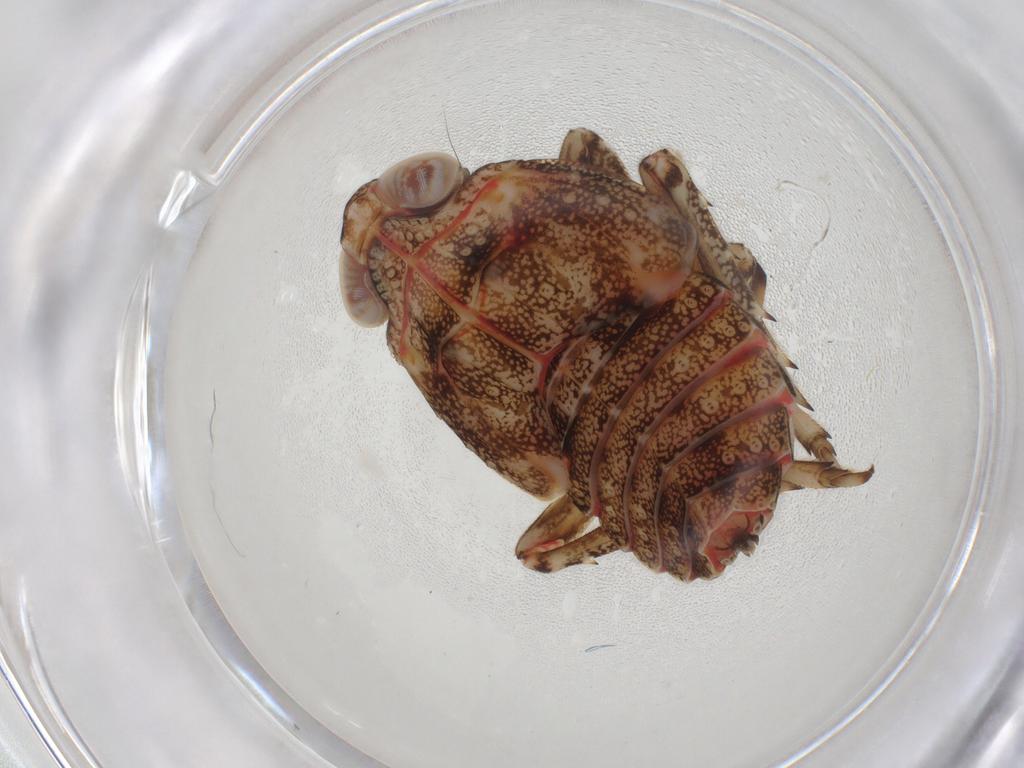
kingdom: Animalia
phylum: Arthropoda
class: Insecta
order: Hemiptera
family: Issidae
